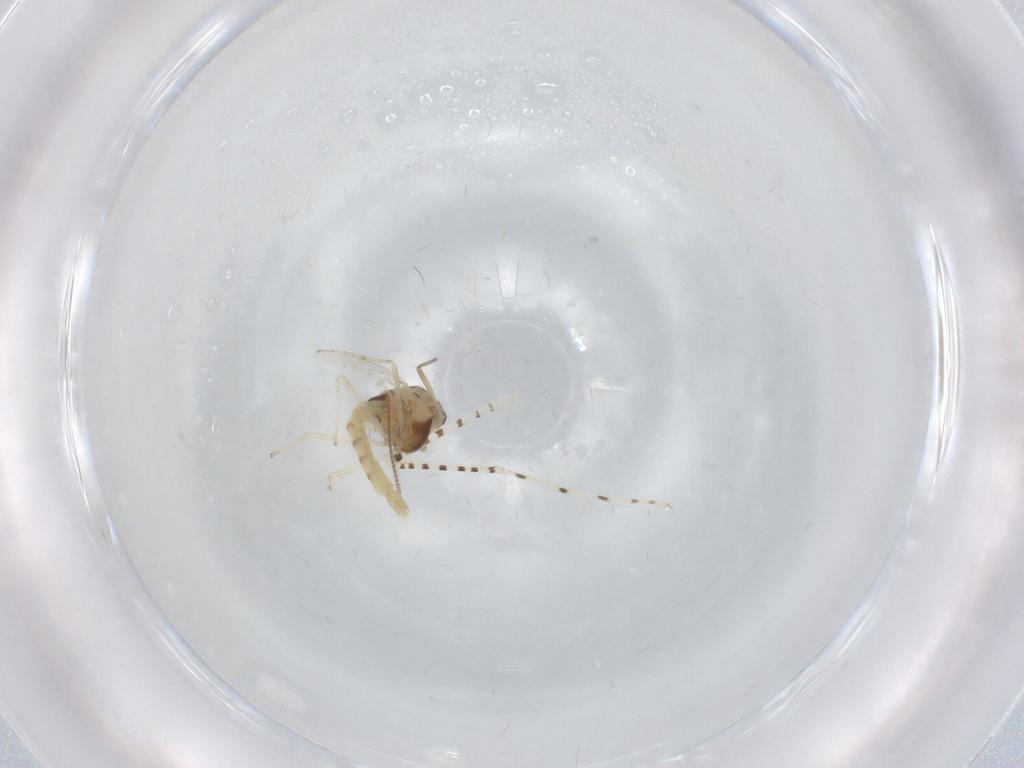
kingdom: Animalia
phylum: Arthropoda
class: Insecta
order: Diptera
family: Chironomidae
